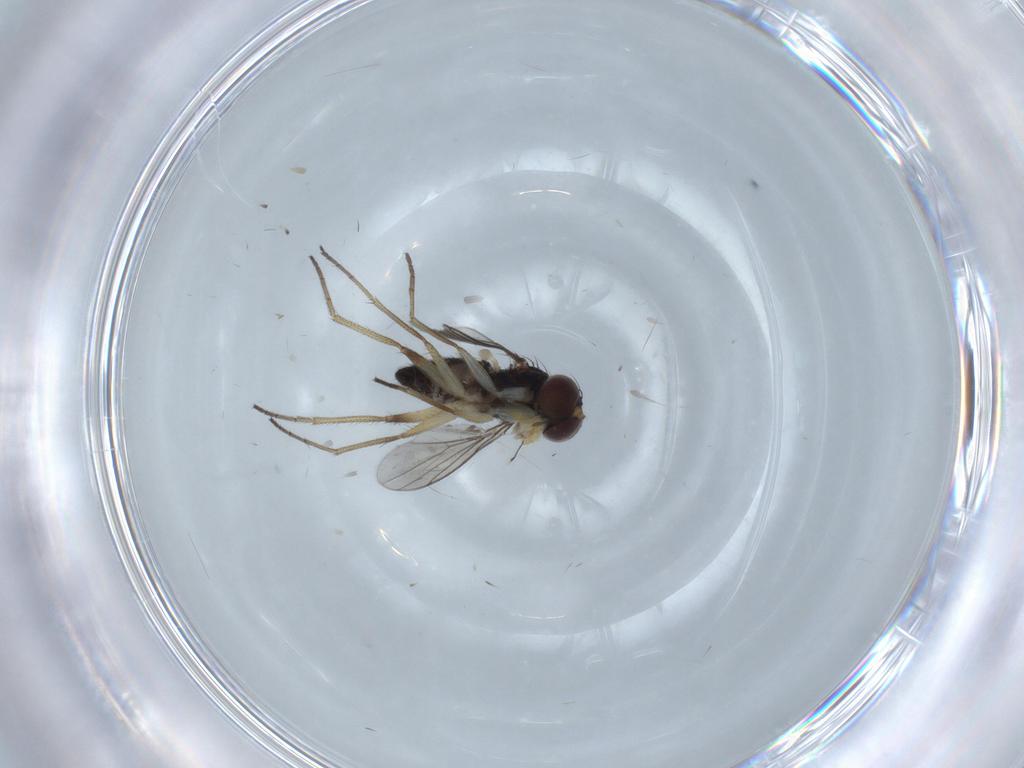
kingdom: Animalia
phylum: Arthropoda
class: Insecta
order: Diptera
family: Dolichopodidae
